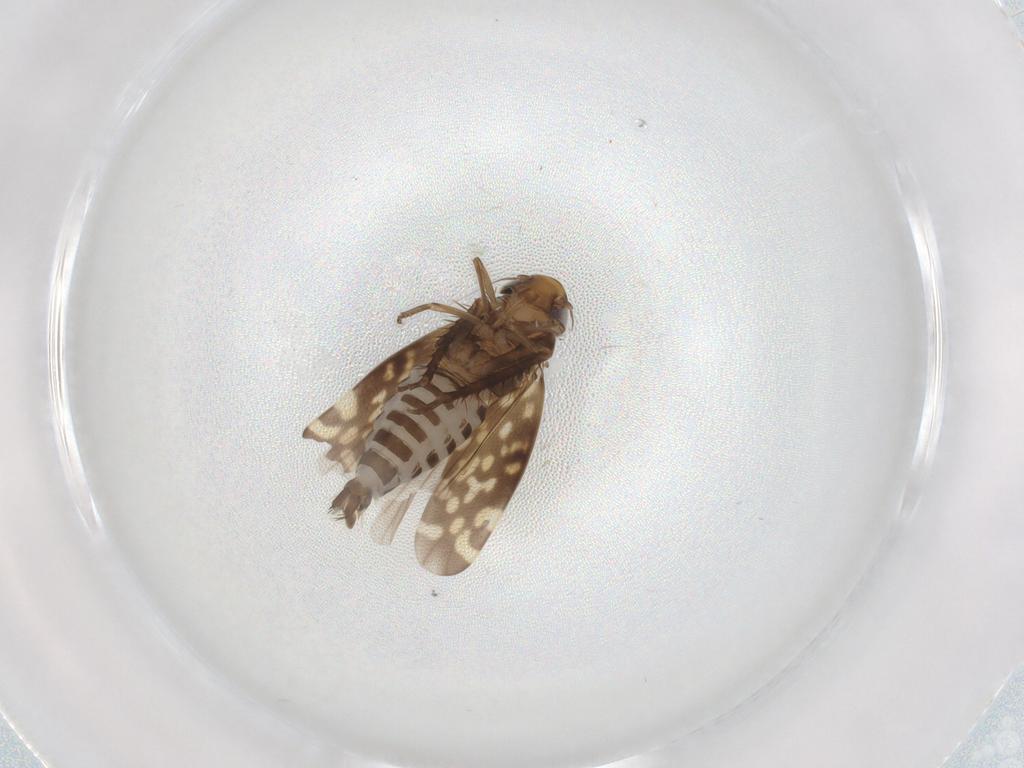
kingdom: Animalia
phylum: Arthropoda
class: Insecta
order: Hemiptera
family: Cicadellidae
